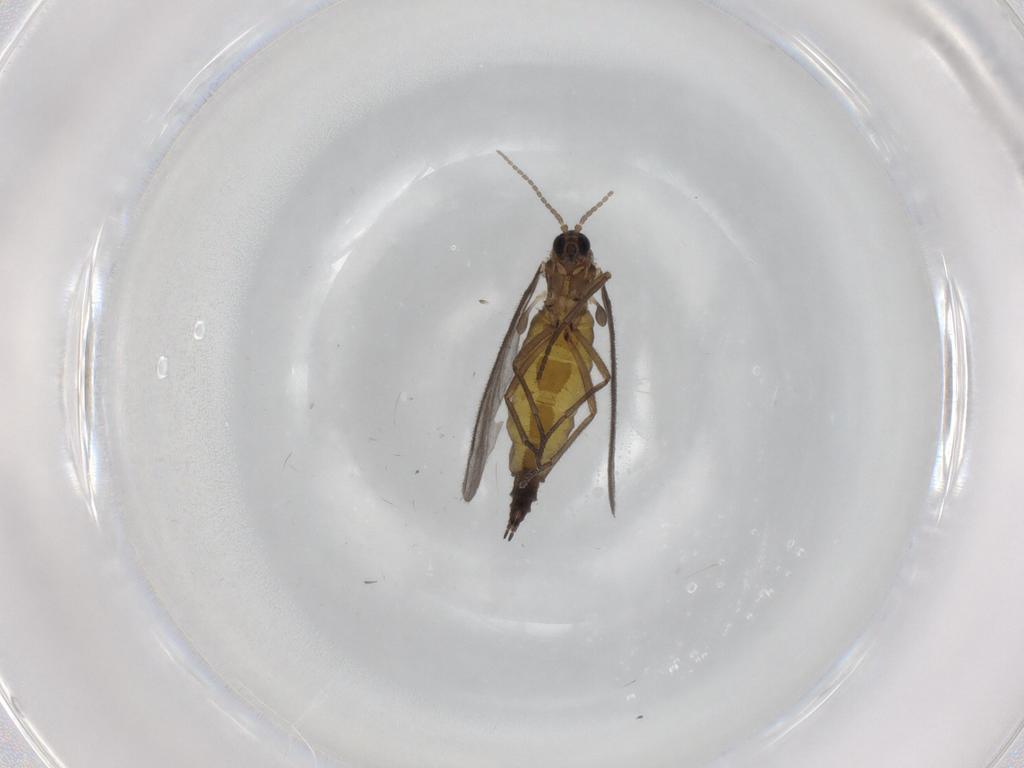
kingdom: Animalia
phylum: Arthropoda
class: Insecta
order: Diptera
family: Sciaridae
